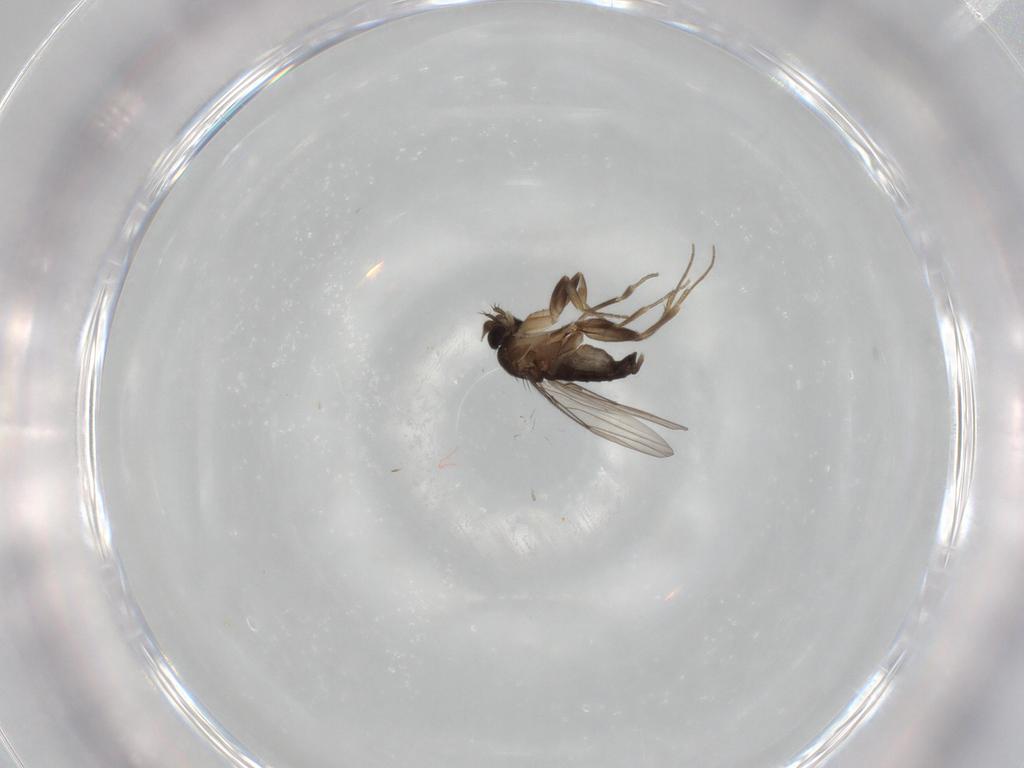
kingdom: Animalia
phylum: Arthropoda
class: Insecta
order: Diptera
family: Phoridae
